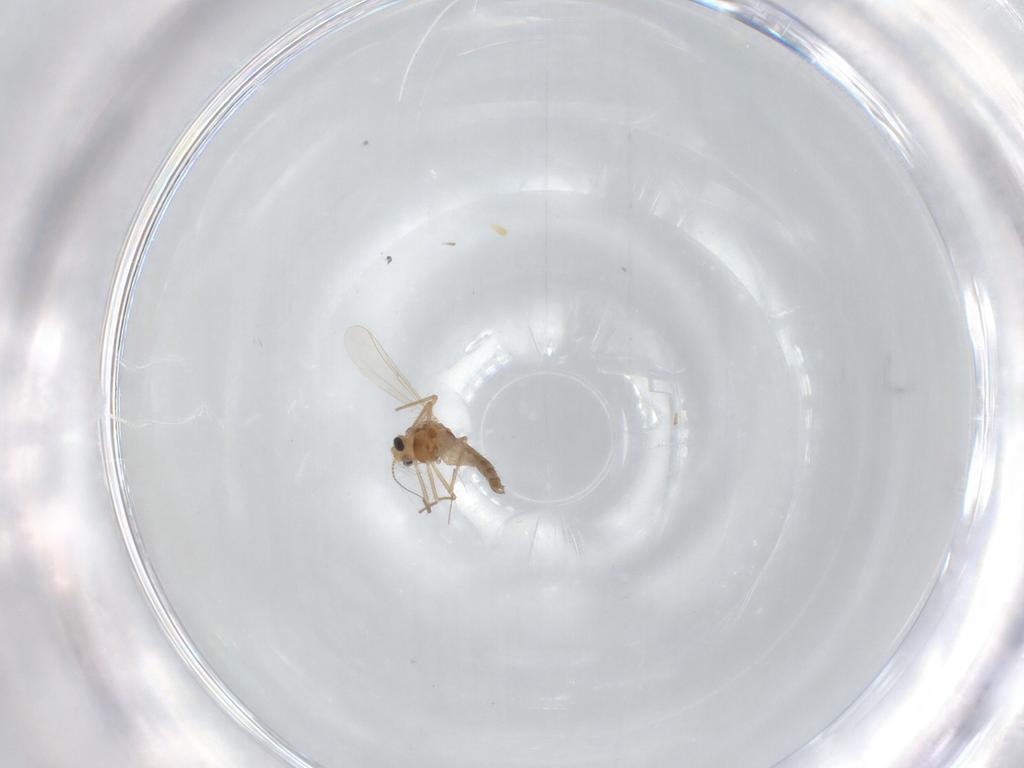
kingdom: Animalia
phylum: Arthropoda
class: Insecta
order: Diptera
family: Chironomidae
